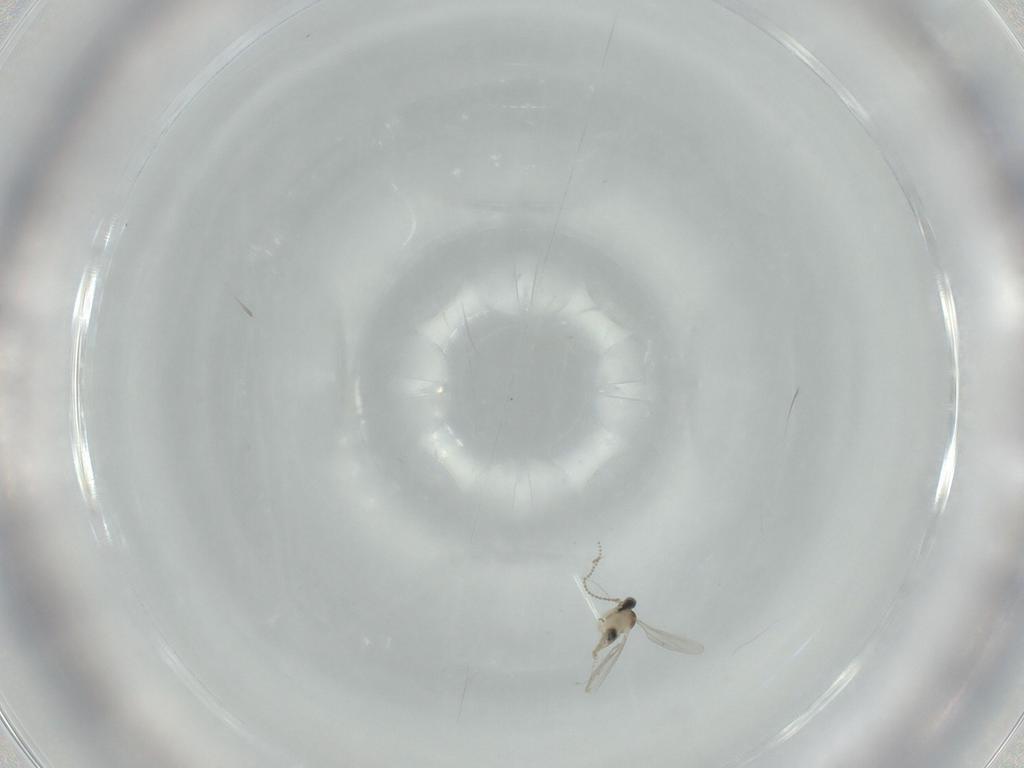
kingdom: Animalia
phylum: Arthropoda
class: Insecta
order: Diptera
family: Cecidomyiidae
